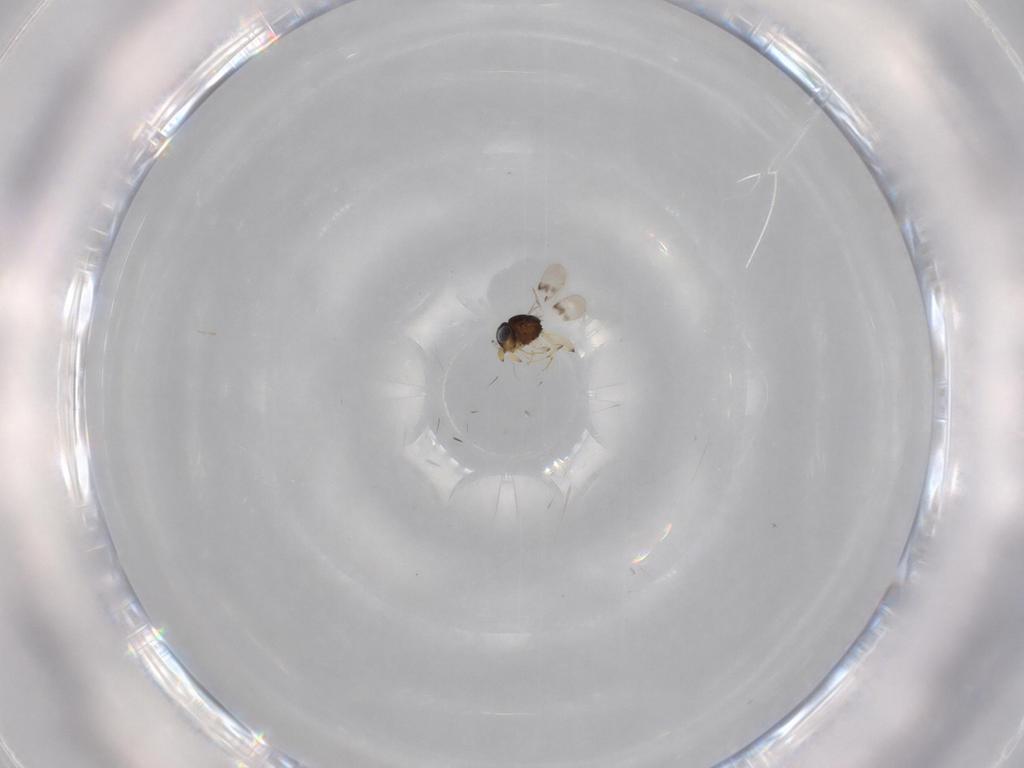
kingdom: Animalia
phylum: Arthropoda
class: Insecta
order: Hymenoptera
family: Scelionidae
